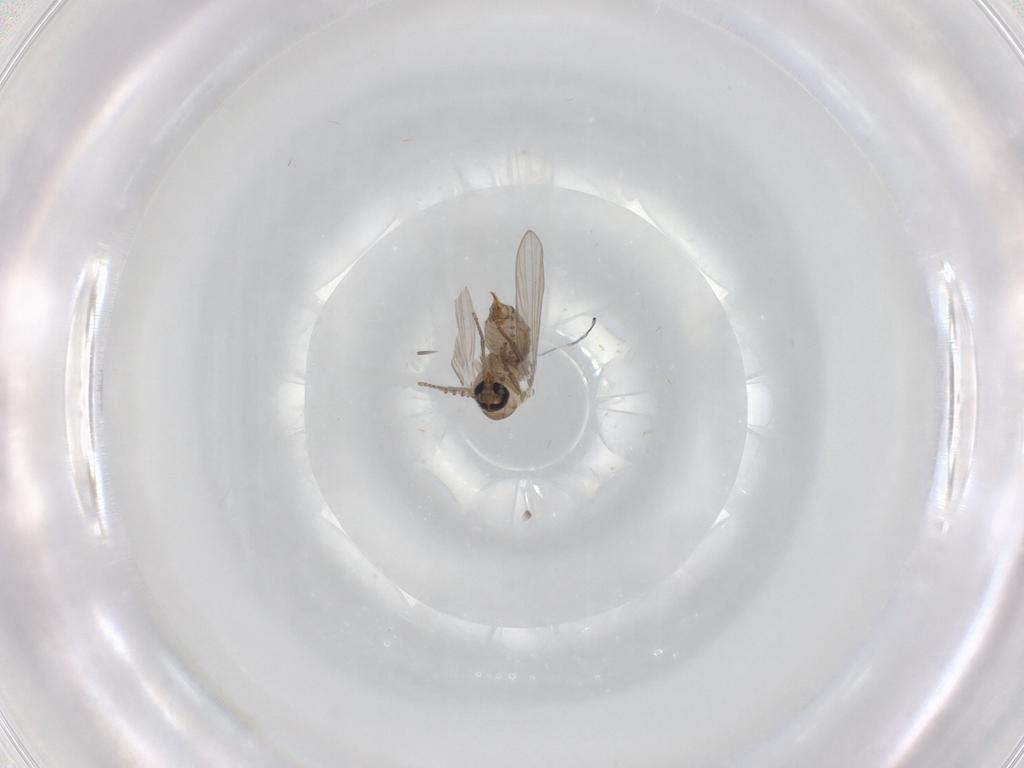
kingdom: Animalia
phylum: Arthropoda
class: Insecta
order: Diptera
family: Psychodidae
